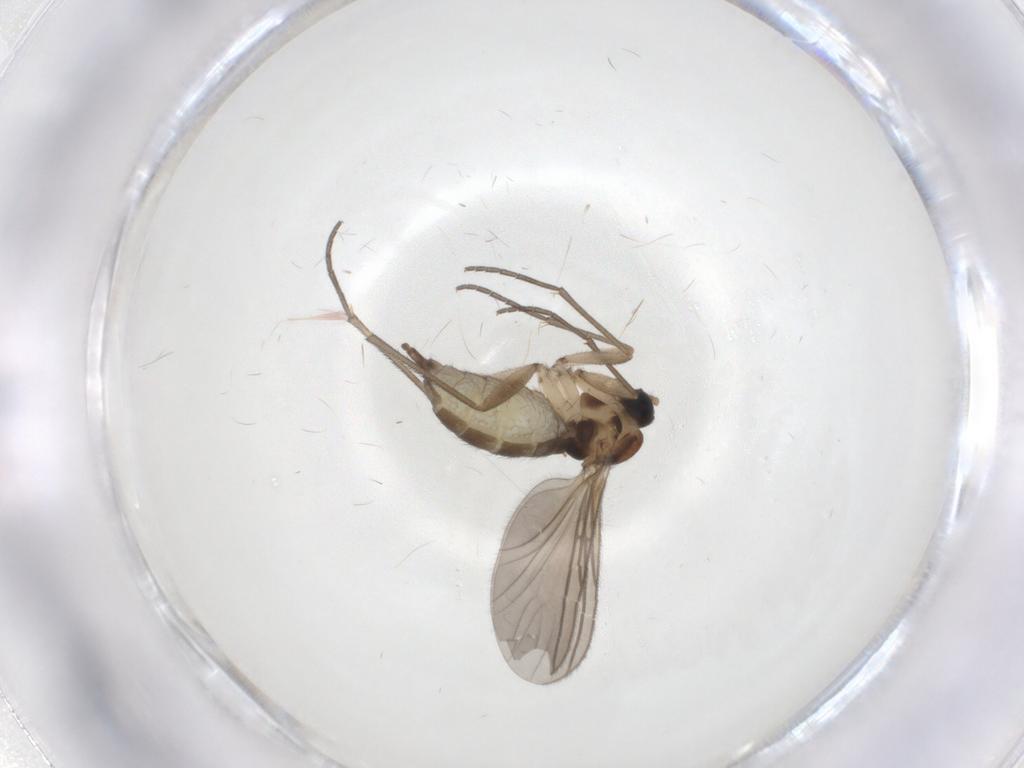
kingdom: Animalia
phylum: Arthropoda
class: Insecta
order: Diptera
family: Sciaridae
